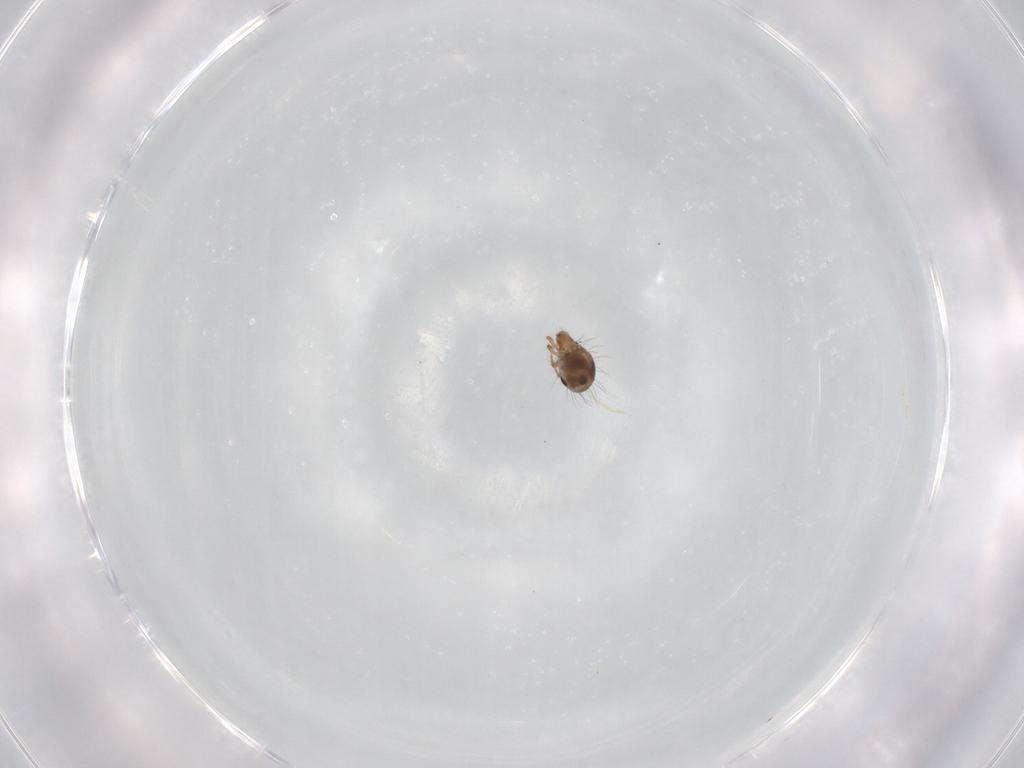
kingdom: Animalia
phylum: Arthropoda
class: Arachnida
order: Sarcoptiformes
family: Humerobatidae
